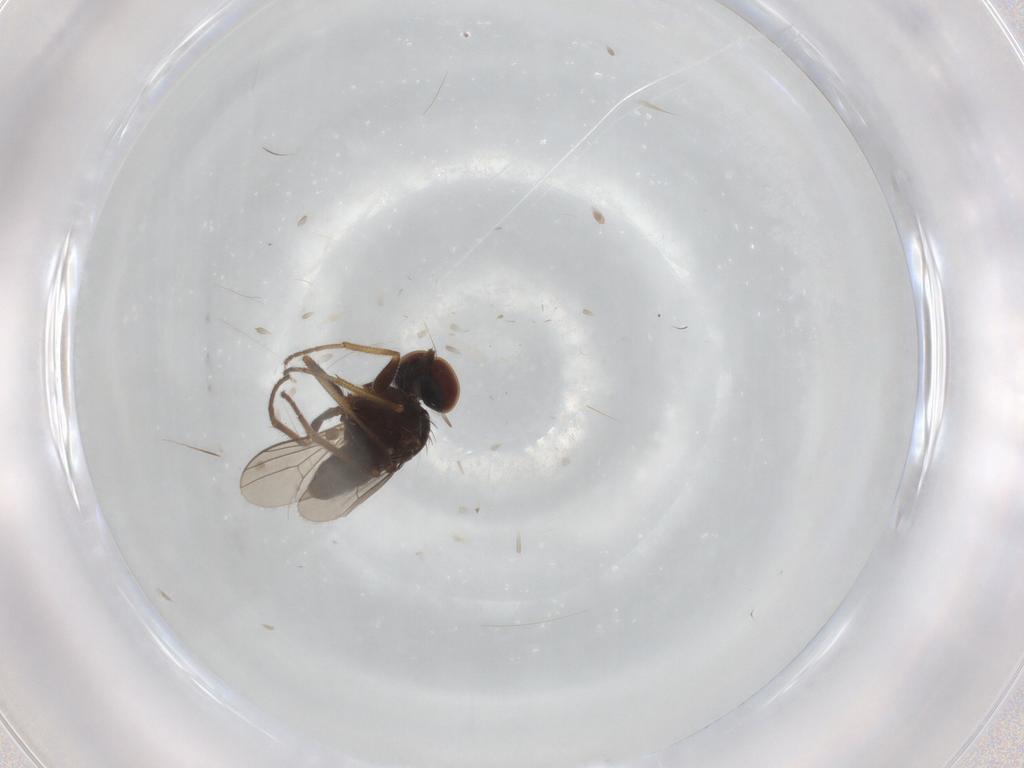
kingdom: Animalia
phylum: Arthropoda
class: Insecta
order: Diptera
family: Dolichopodidae
